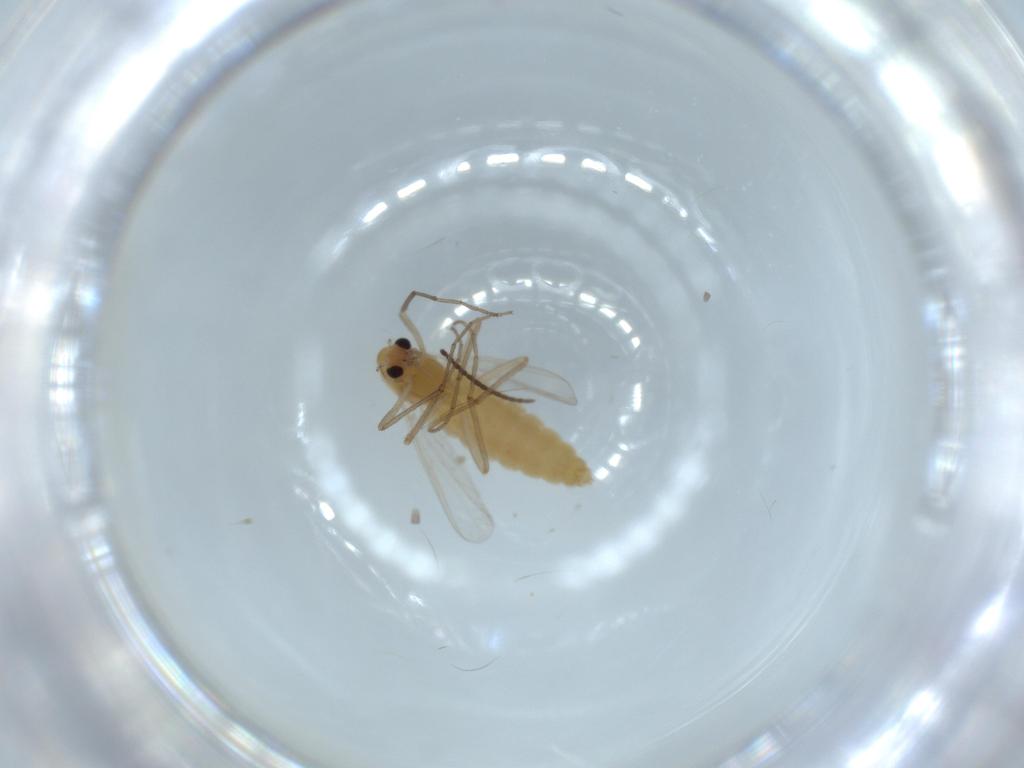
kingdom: Animalia
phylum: Arthropoda
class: Insecta
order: Diptera
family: Chironomidae
